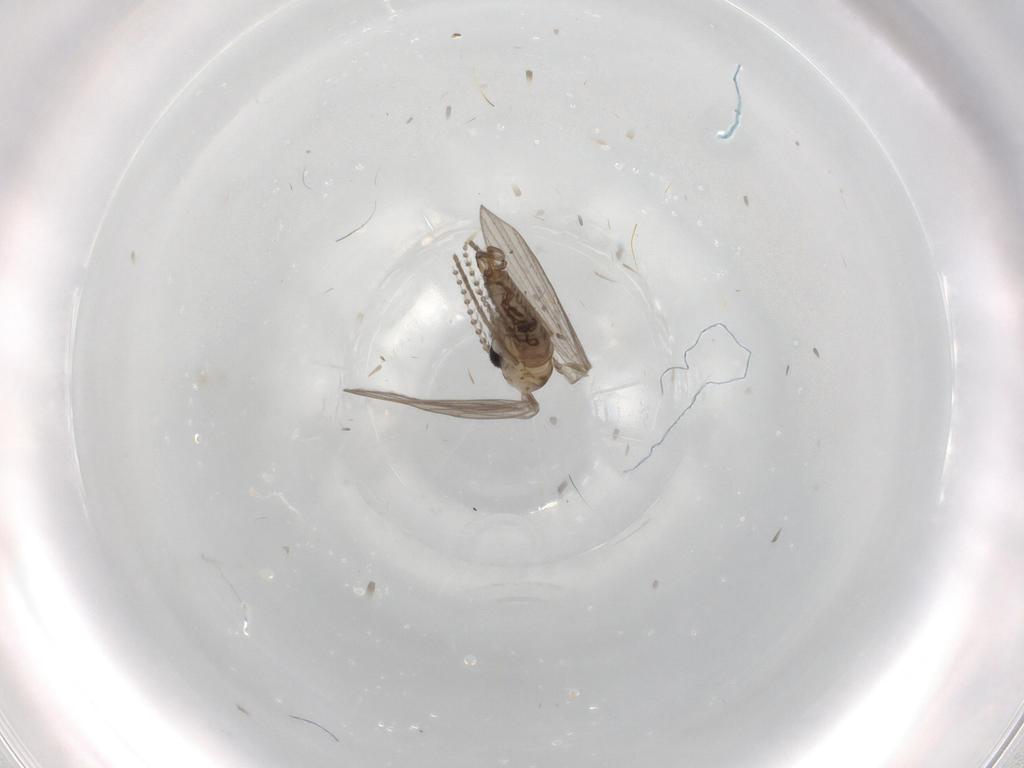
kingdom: Animalia
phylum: Arthropoda
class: Insecta
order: Diptera
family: Psychodidae
